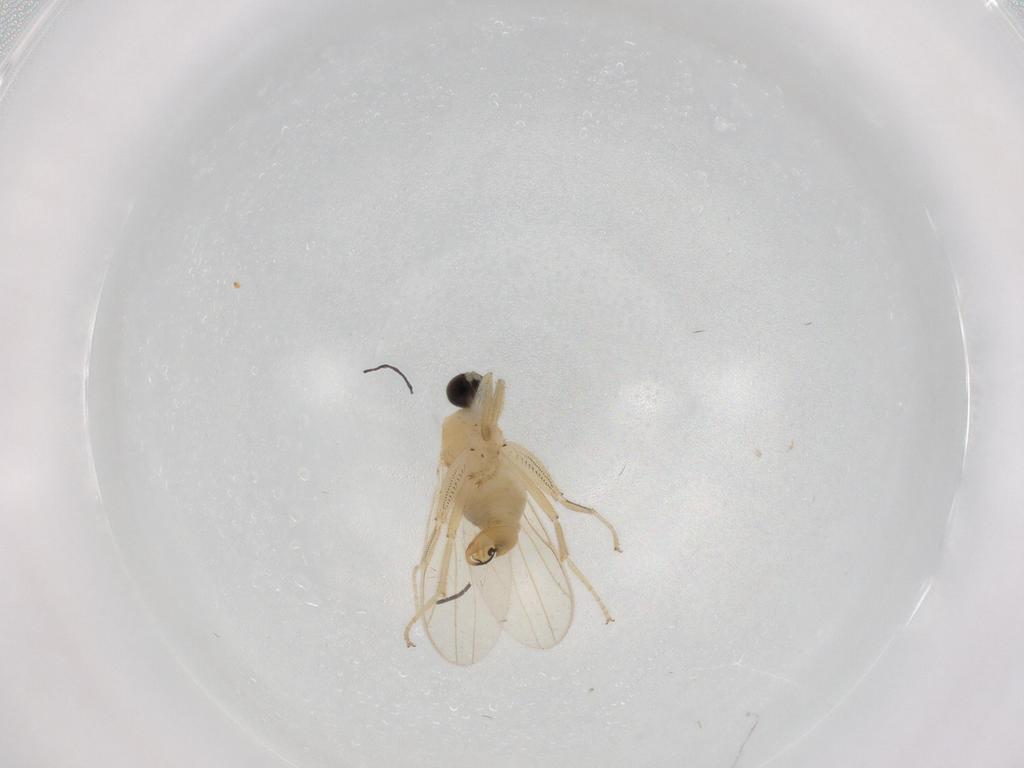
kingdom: Animalia
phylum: Arthropoda
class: Insecta
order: Diptera
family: Cecidomyiidae
